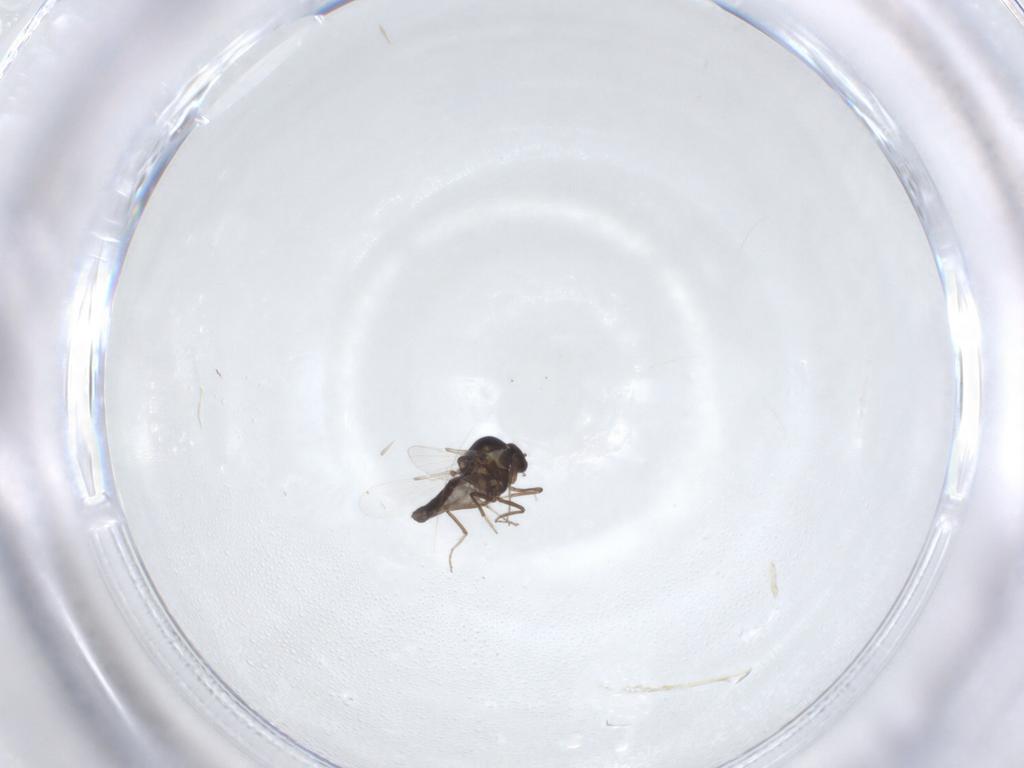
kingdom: Animalia
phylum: Arthropoda
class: Insecta
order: Diptera
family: Ceratopogonidae
